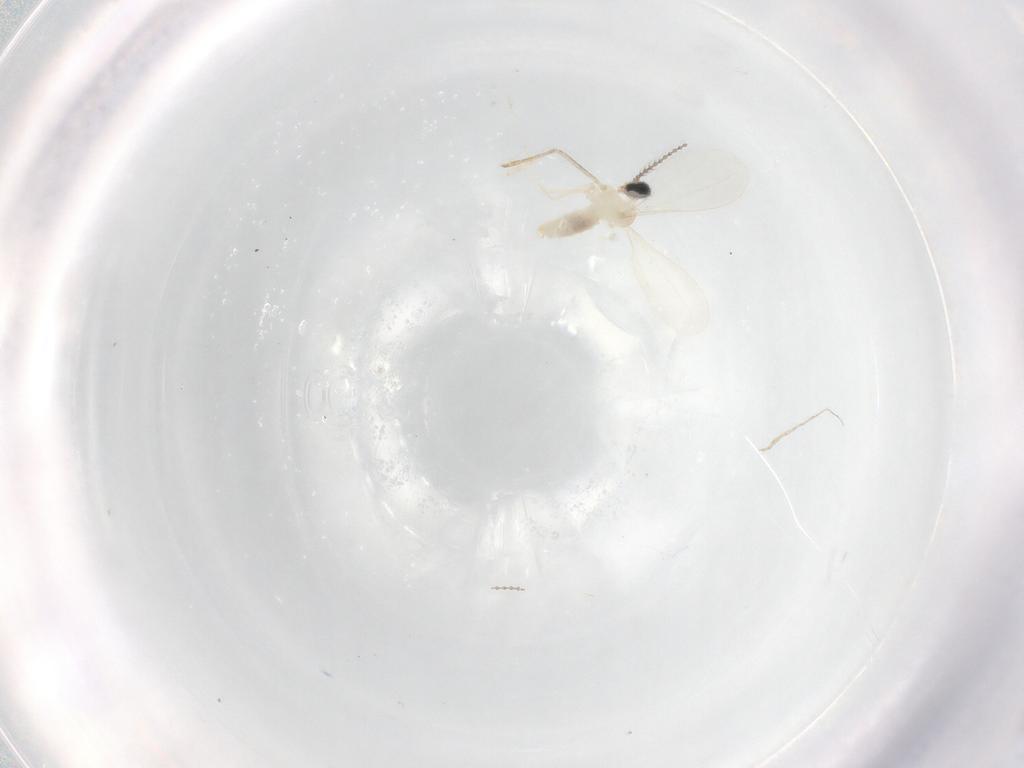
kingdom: Animalia
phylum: Arthropoda
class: Insecta
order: Diptera
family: Cecidomyiidae
